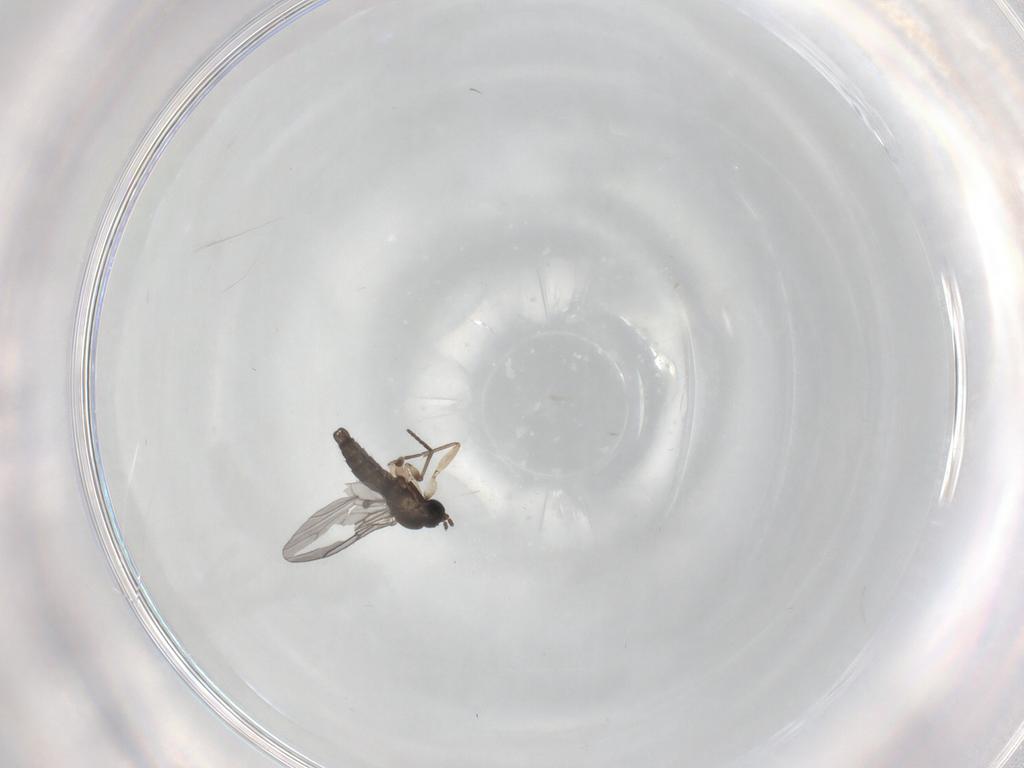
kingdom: Animalia
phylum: Arthropoda
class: Insecta
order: Diptera
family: Sciaridae
